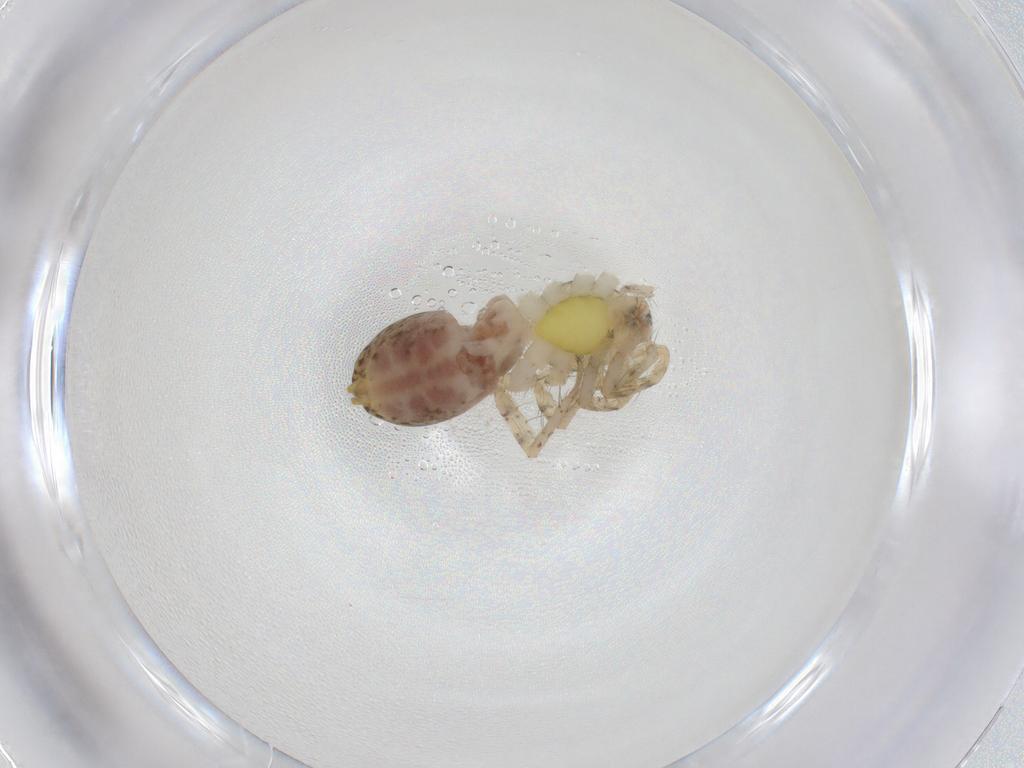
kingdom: Animalia
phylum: Arthropoda
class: Arachnida
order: Araneae
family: Anyphaenidae
